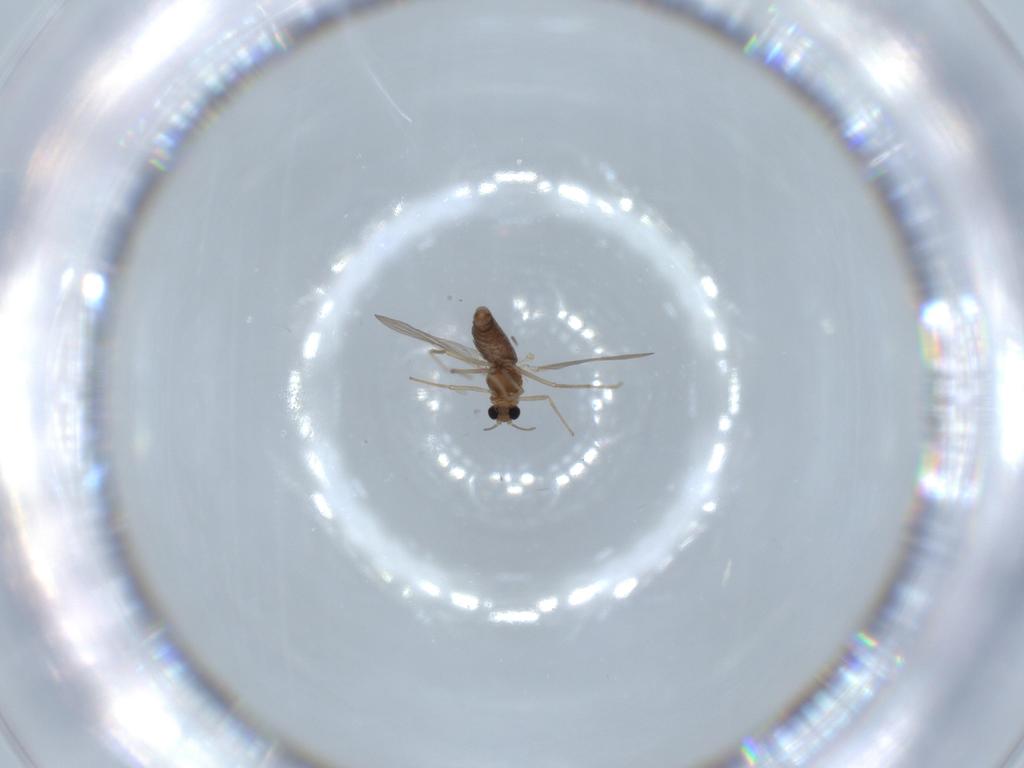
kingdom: Animalia
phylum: Arthropoda
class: Insecta
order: Diptera
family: Chironomidae
